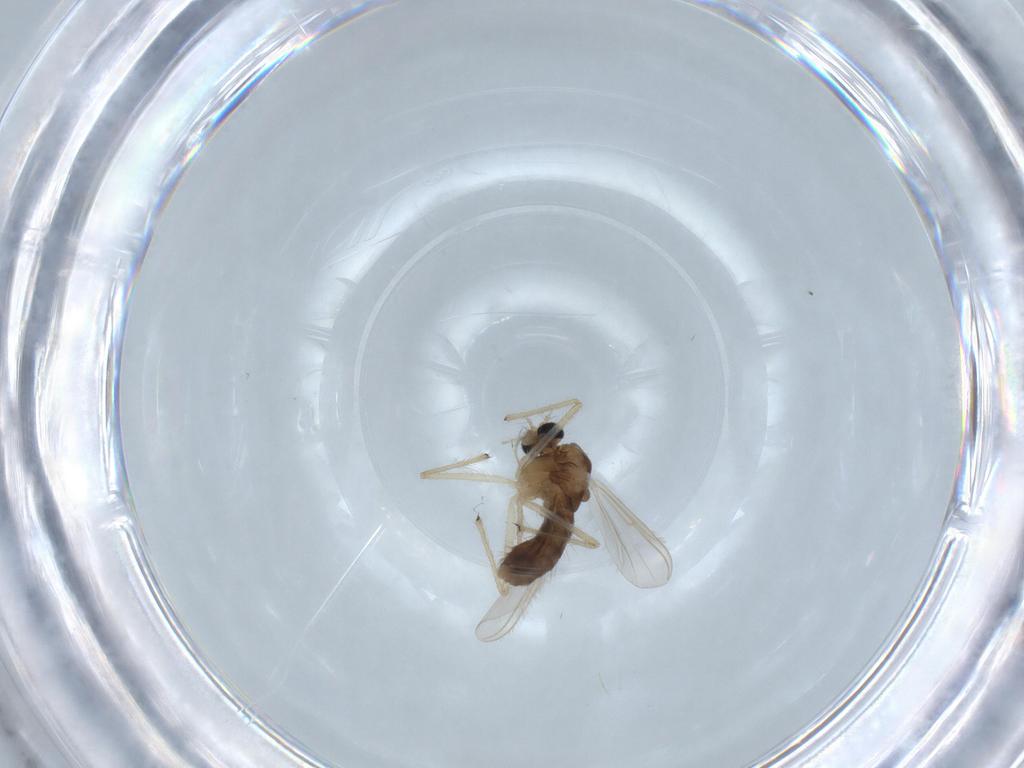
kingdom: Animalia
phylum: Arthropoda
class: Insecta
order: Diptera
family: Chironomidae
